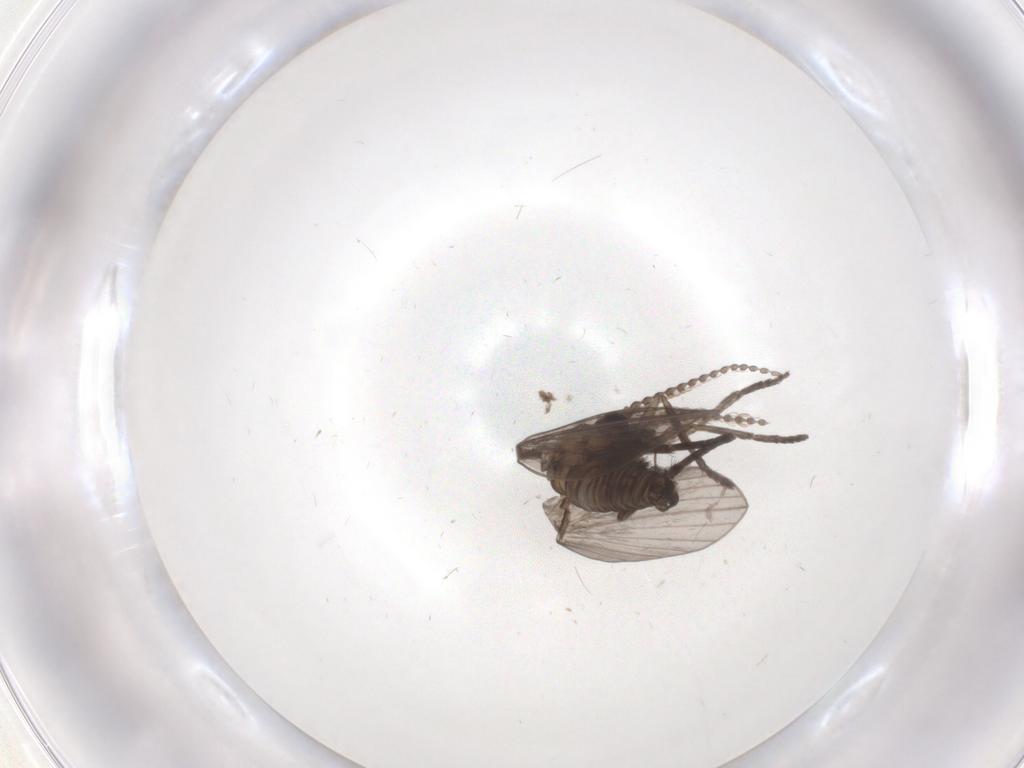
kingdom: Animalia
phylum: Arthropoda
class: Insecta
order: Diptera
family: Psychodidae
